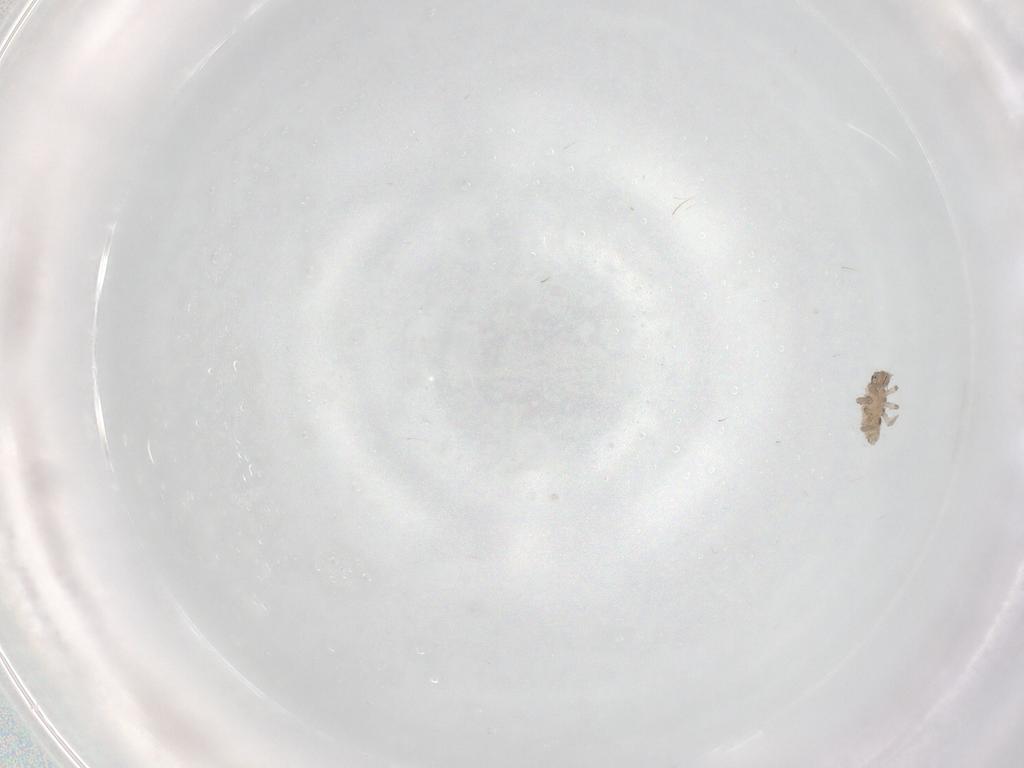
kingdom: Animalia
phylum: Arthropoda
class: Insecta
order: Coleoptera
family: Coccinellidae
